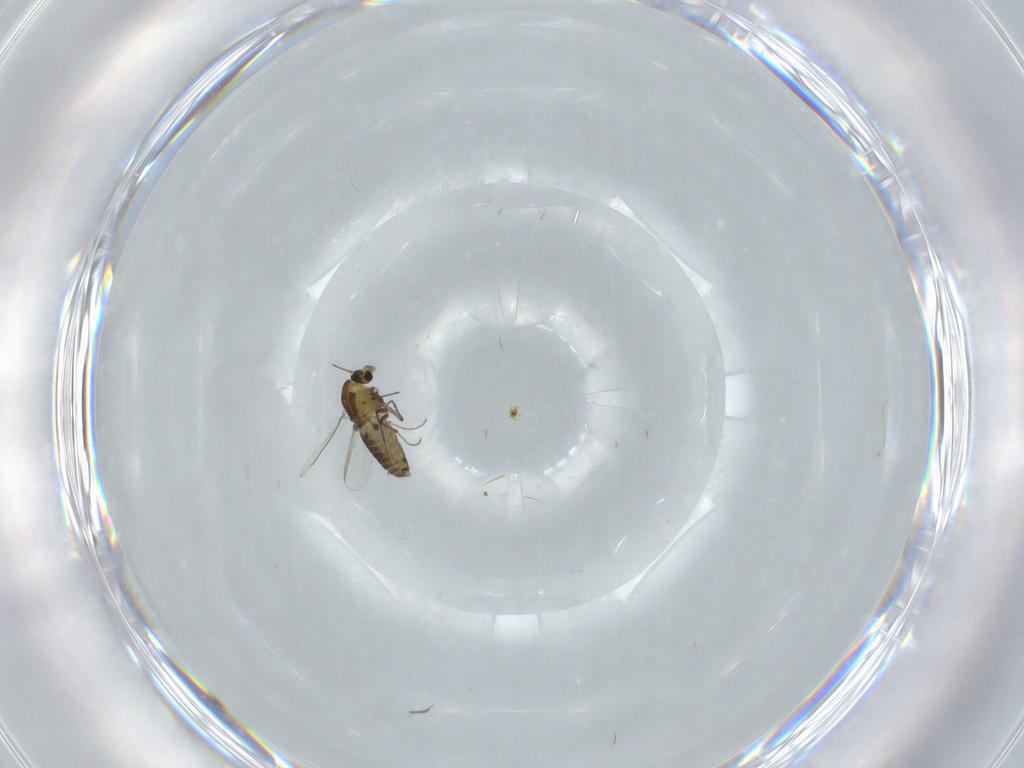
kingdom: Animalia
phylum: Arthropoda
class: Insecta
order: Diptera
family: Chironomidae
